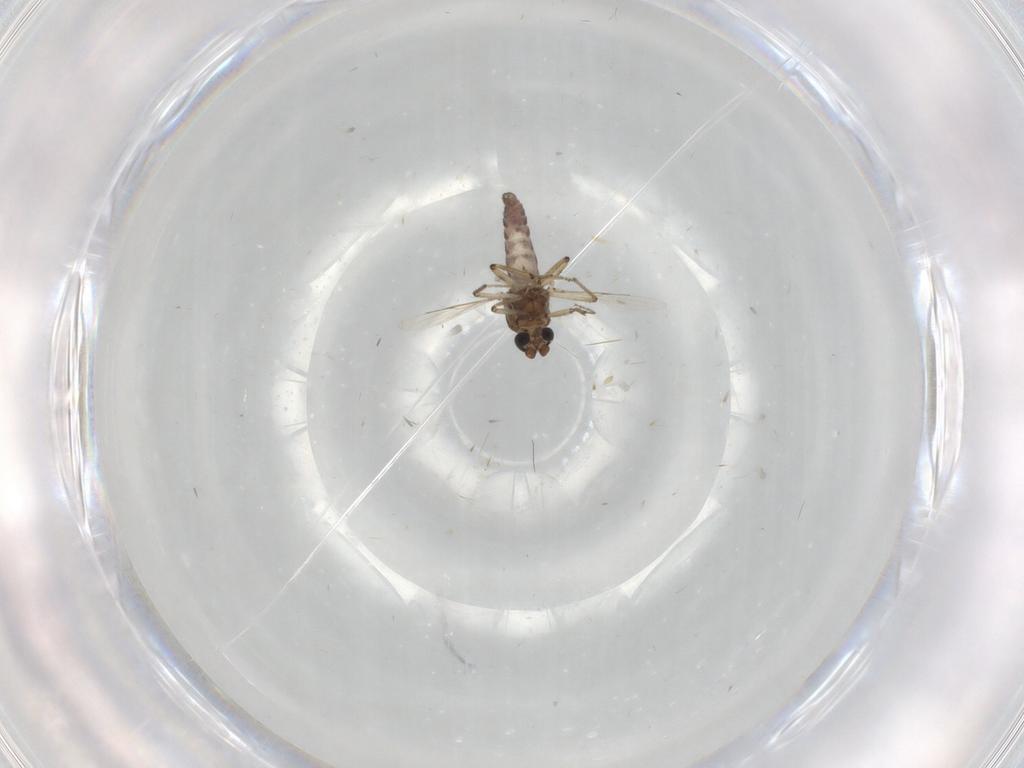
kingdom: Animalia
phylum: Arthropoda
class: Insecta
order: Diptera
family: Ceratopogonidae
